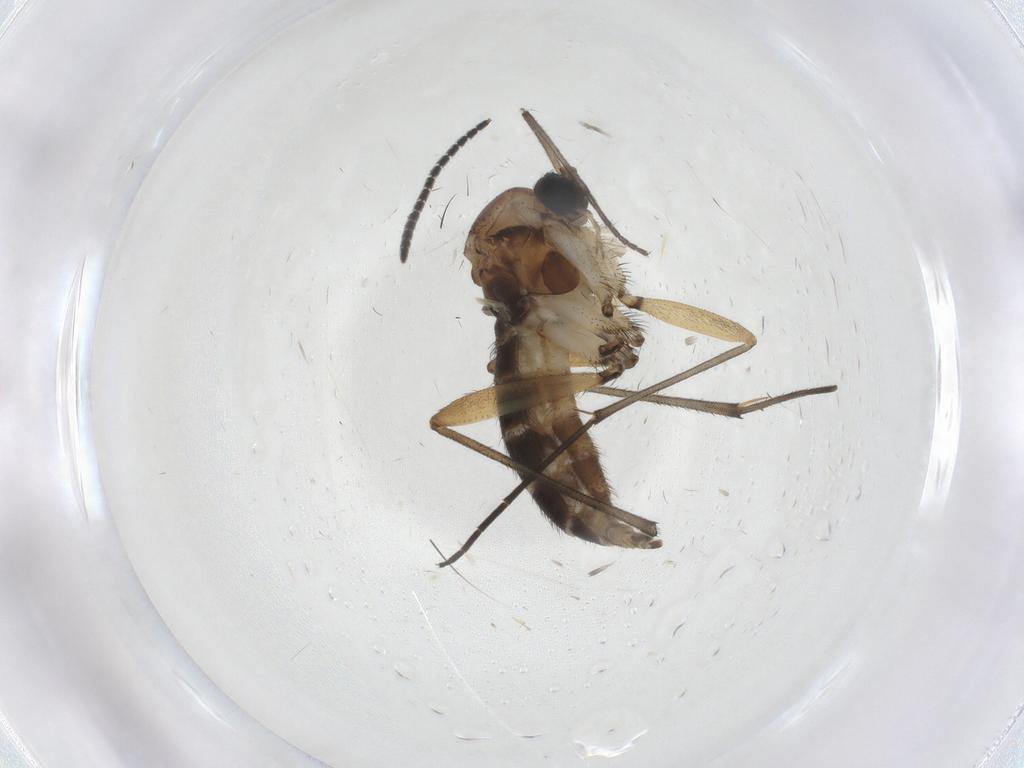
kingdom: Animalia
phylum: Arthropoda
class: Insecta
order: Diptera
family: Sciaridae
